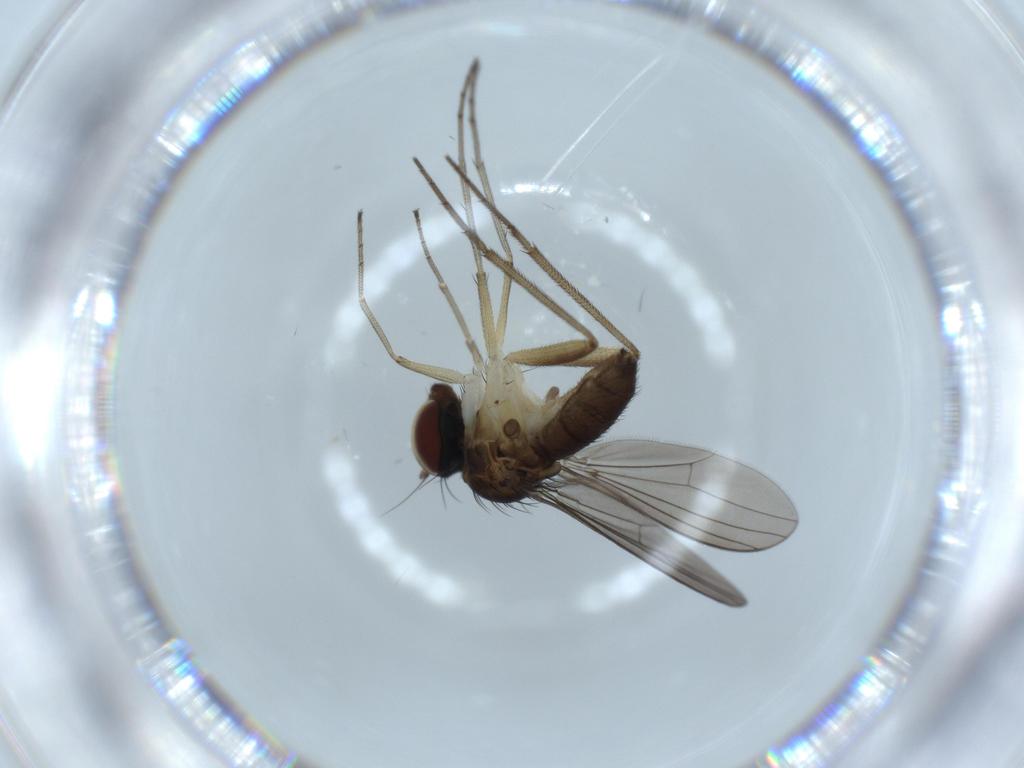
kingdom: Animalia
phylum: Arthropoda
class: Insecta
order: Diptera
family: Dolichopodidae
